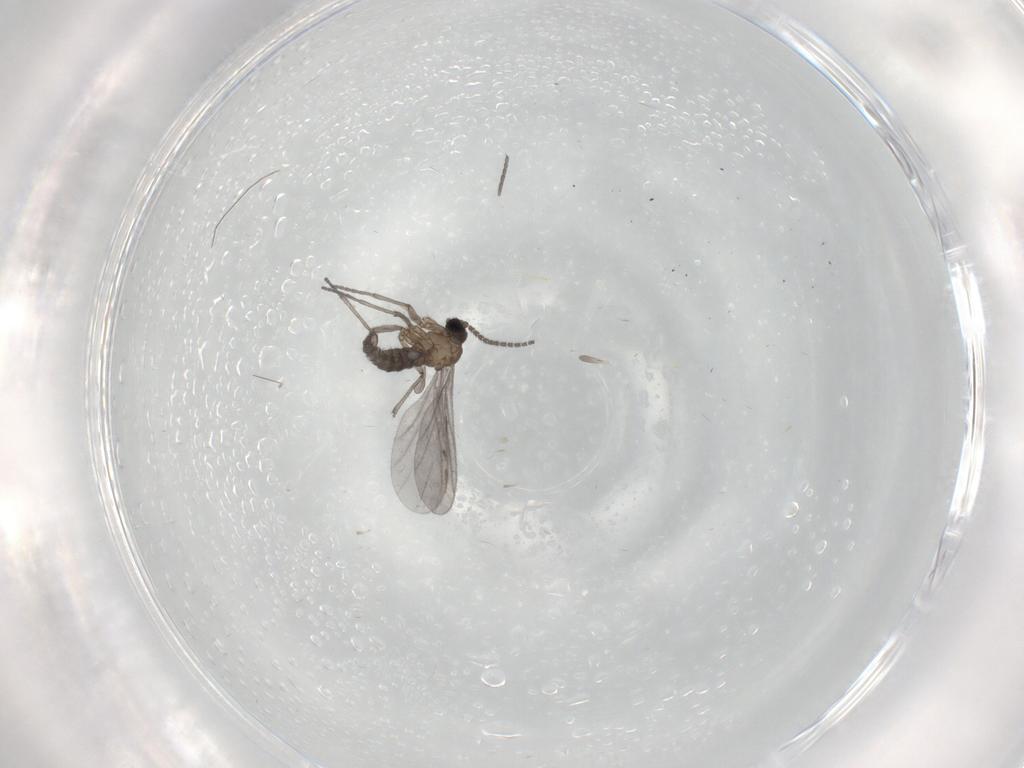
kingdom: Animalia
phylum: Arthropoda
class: Insecta
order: Diptera
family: Sciaridae
